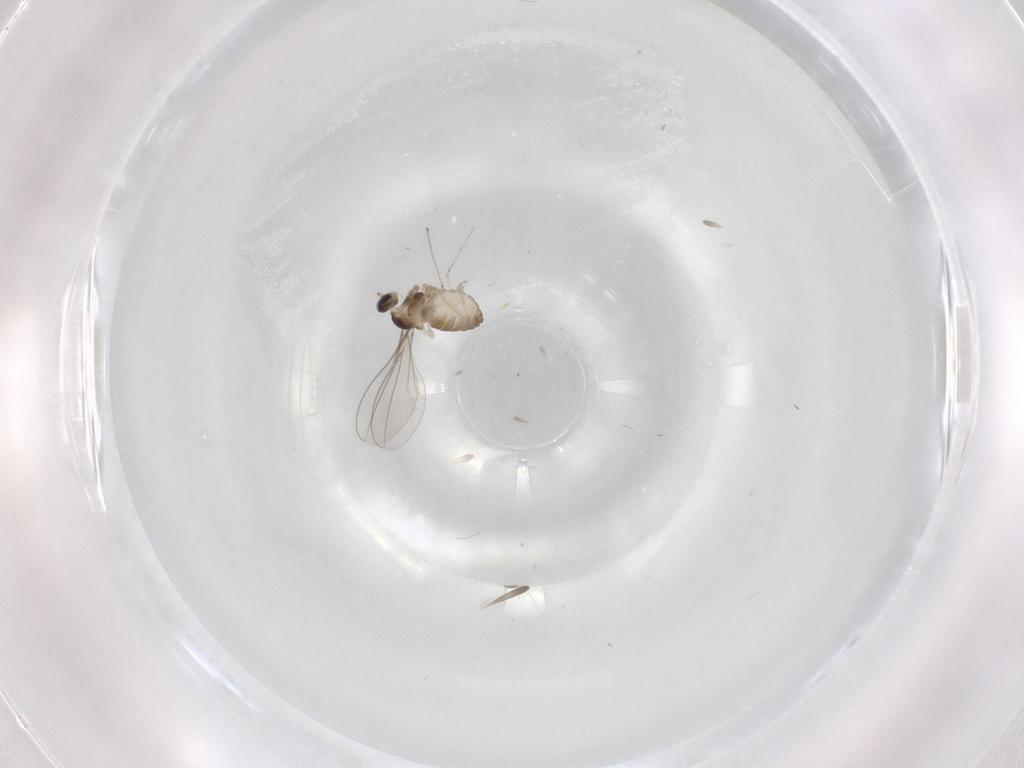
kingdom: Animalia
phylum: Arthropoda
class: Insecta
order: Diptera
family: Cecidomyiidae
